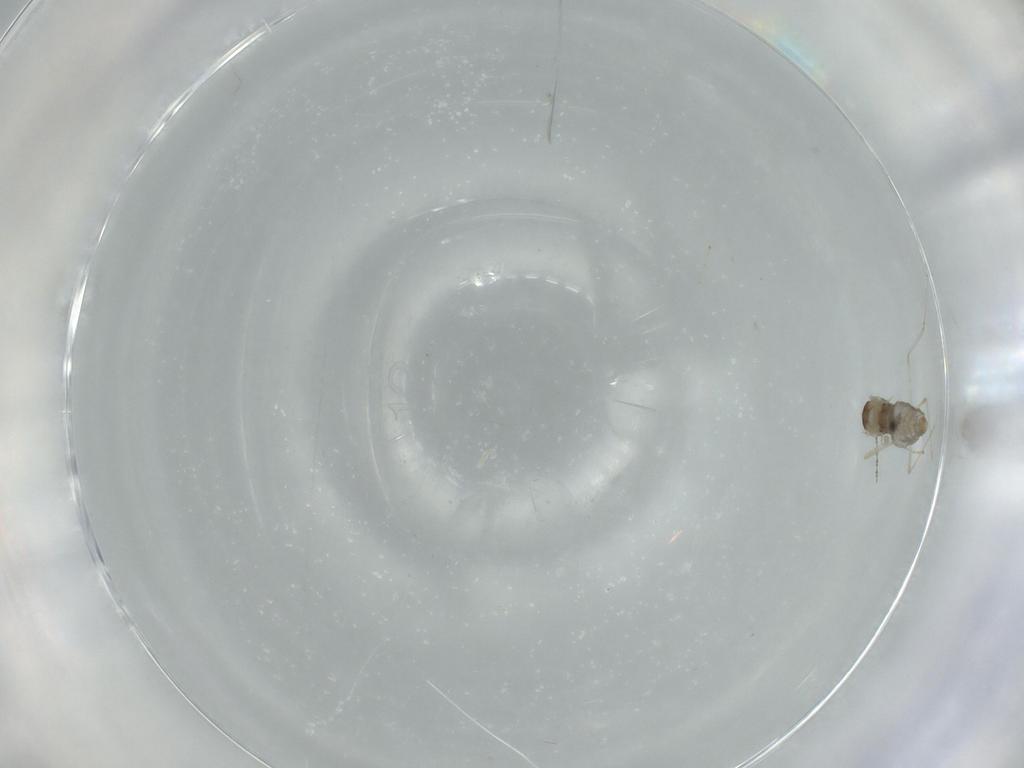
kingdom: Animalia
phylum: Arthropoda
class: Insecta
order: Diptera
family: Cecidomyiidae
